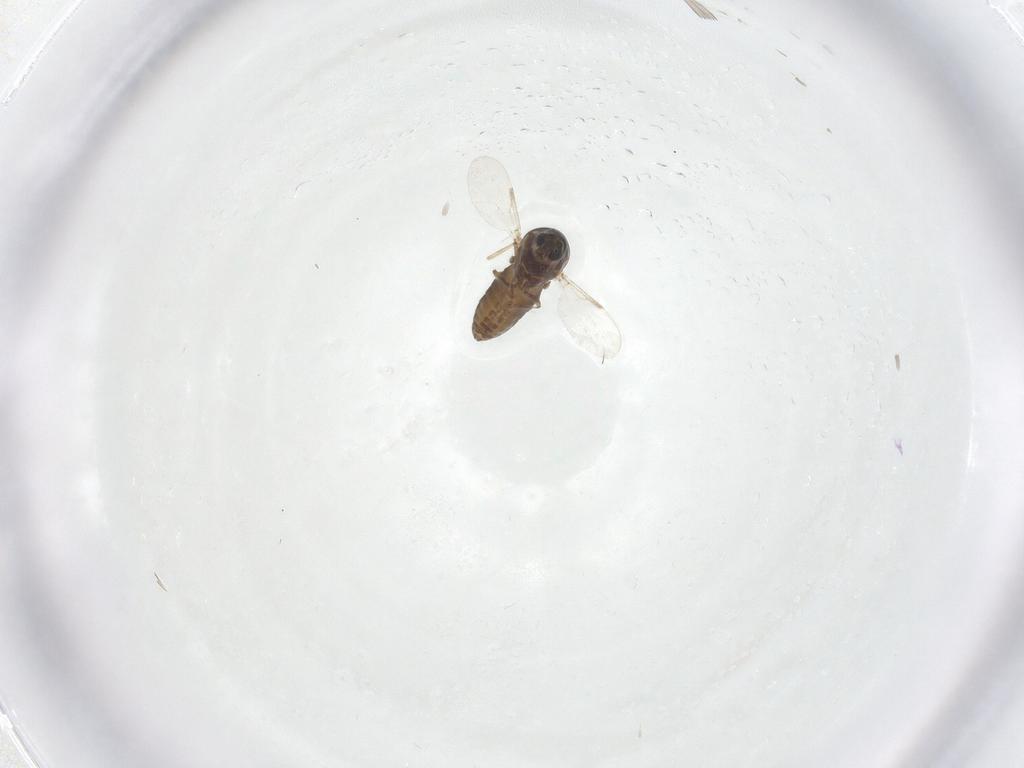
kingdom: Animalia
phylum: Arthropoda
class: Insecta
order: Diptera
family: Ceratopogonidae
